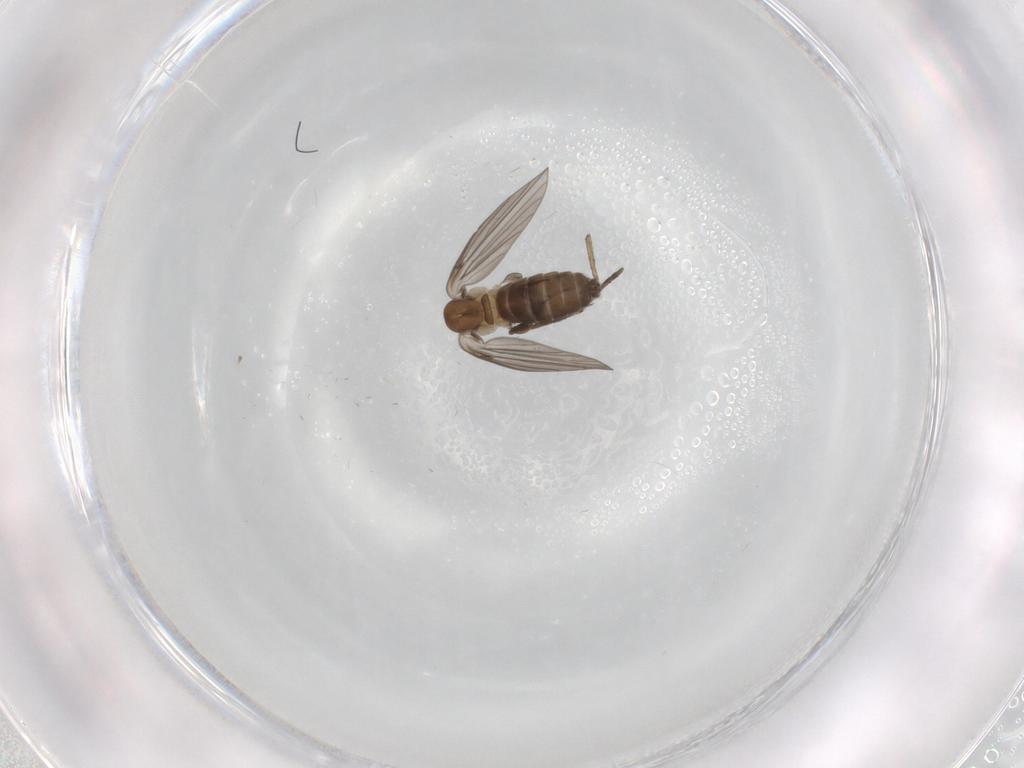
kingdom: Animalia
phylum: Arthropoda
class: Insecta
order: Diptera
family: Psychodidae
